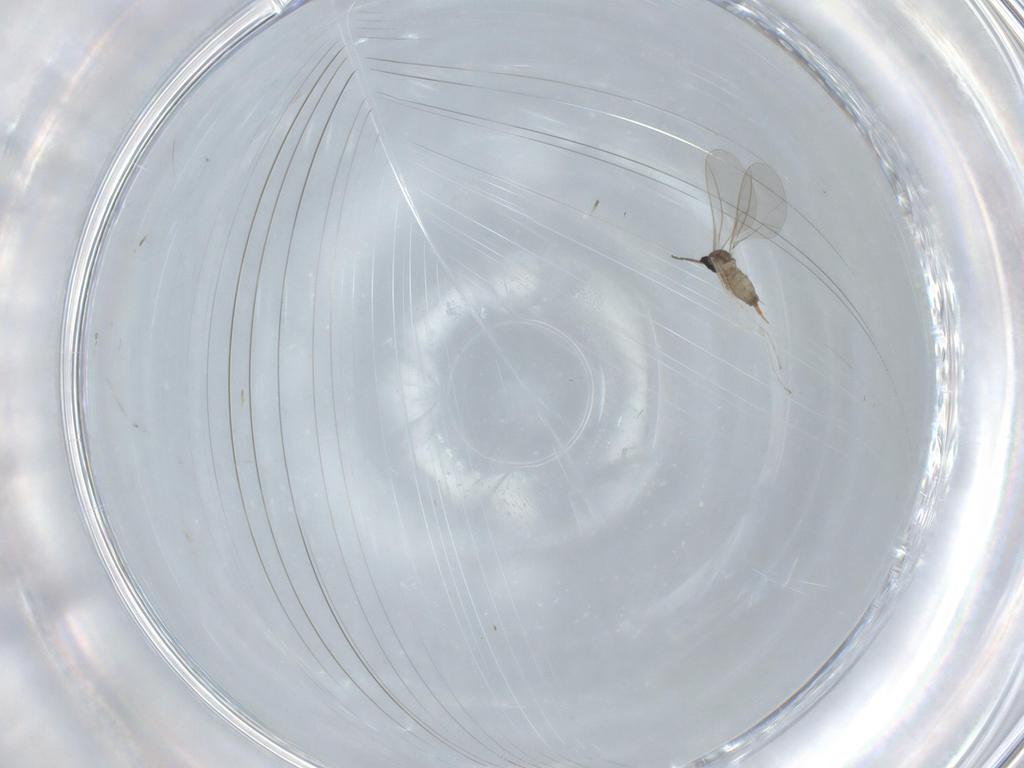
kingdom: Animalia
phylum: Arthropoda
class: Insecta
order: Diptera
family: Cecidomyiidae
